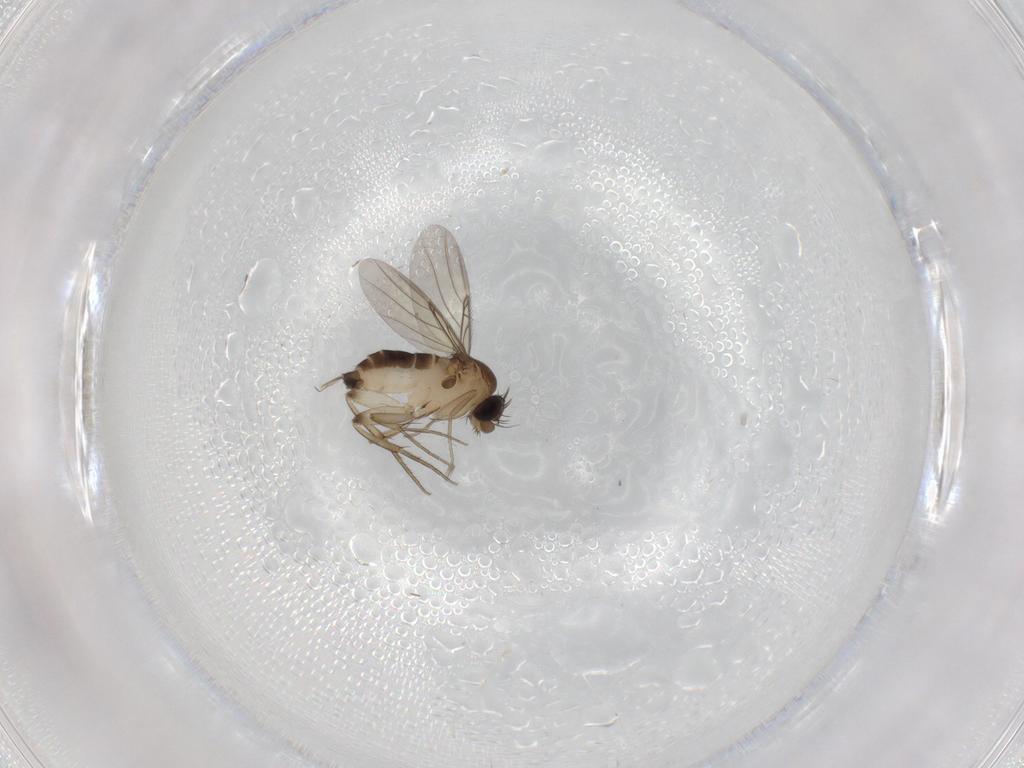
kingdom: Animalia
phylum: Arthropoda
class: Insecta
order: Diptera
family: Phoridae
